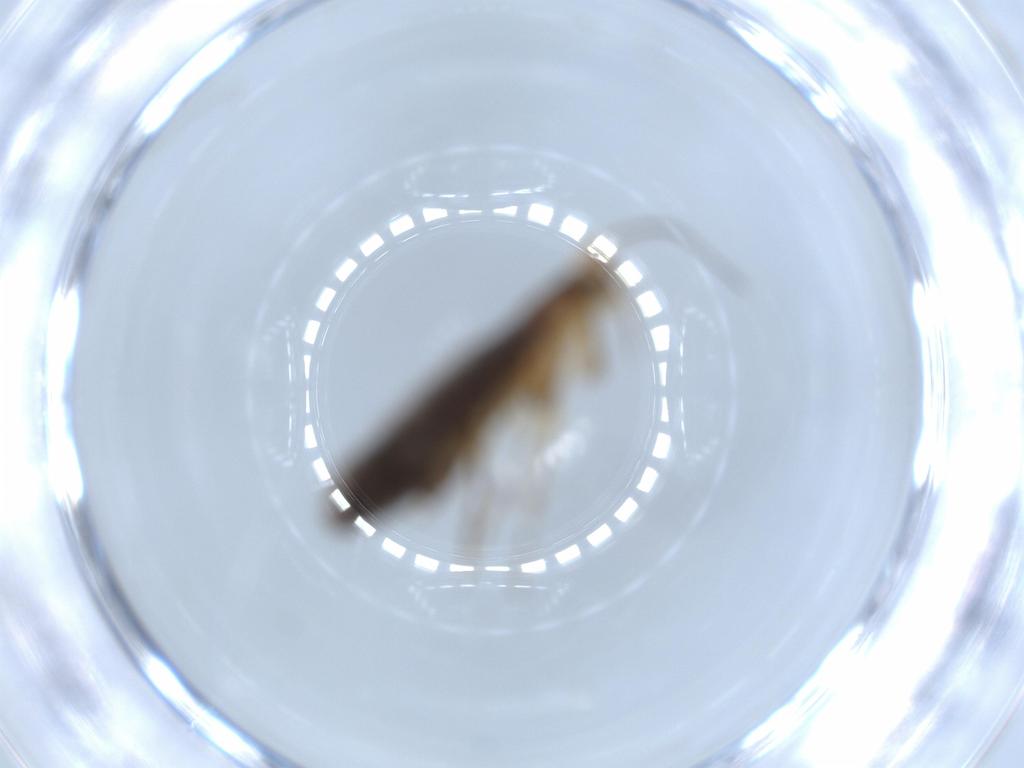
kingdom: Animalia
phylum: Arthropoda
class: Insecta
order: Lepidoptera
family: Argyresthiidae
